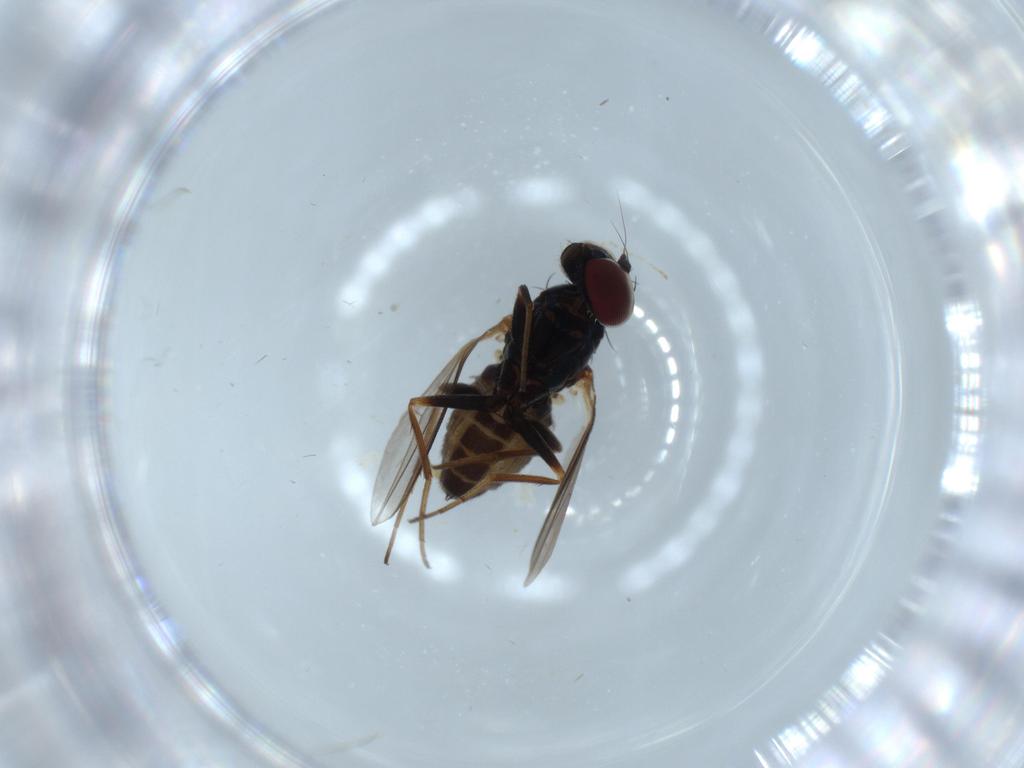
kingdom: Animalia
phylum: Arthropoda
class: Insecta
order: Diptera
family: Dolichopodidae
